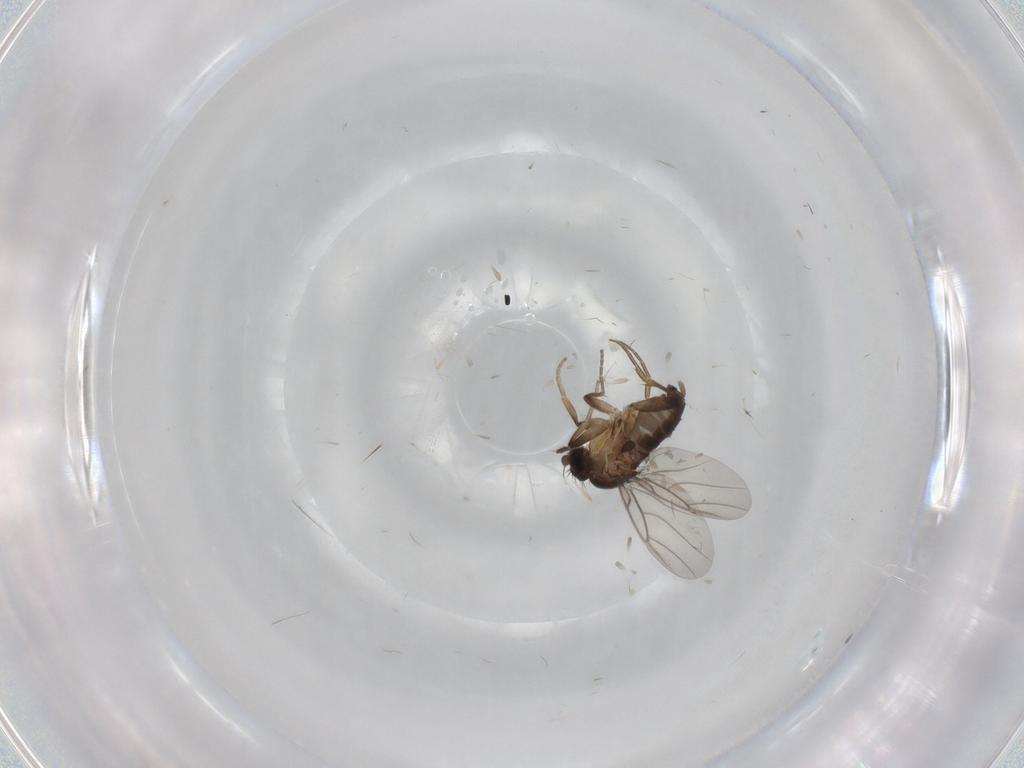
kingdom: Animalia
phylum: Arthropoda
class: Insecta
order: Diptera
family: Phoridae
